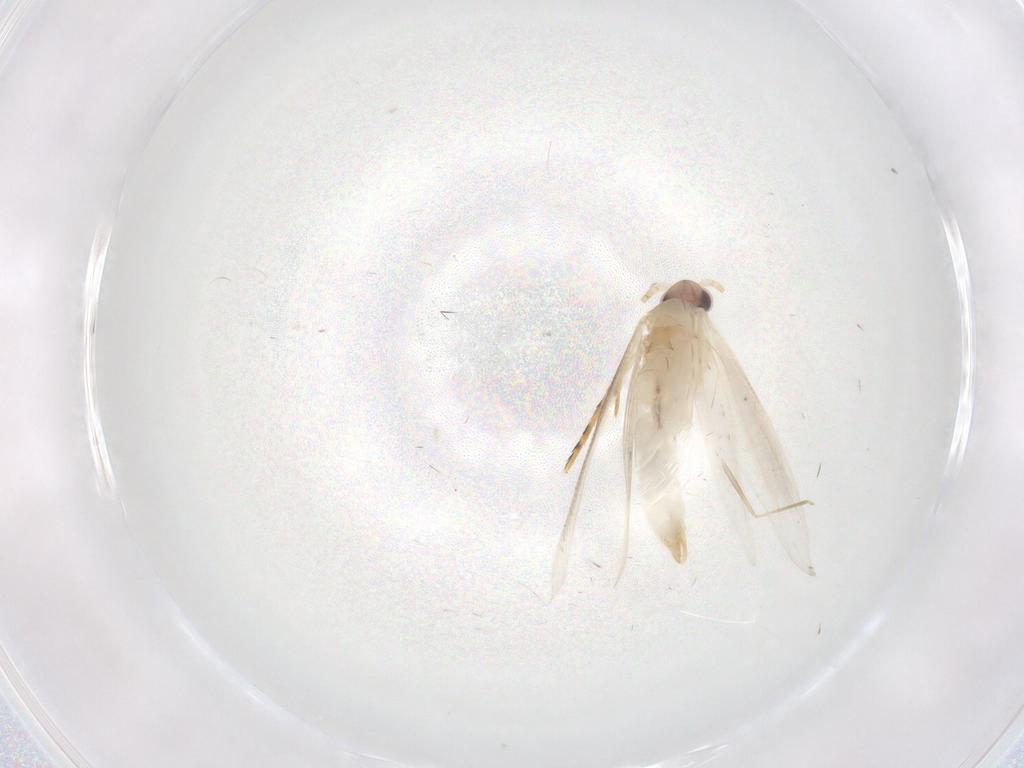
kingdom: Animalia
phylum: Arthropoda
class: Insecta
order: Lepidoptera
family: Tineidae
